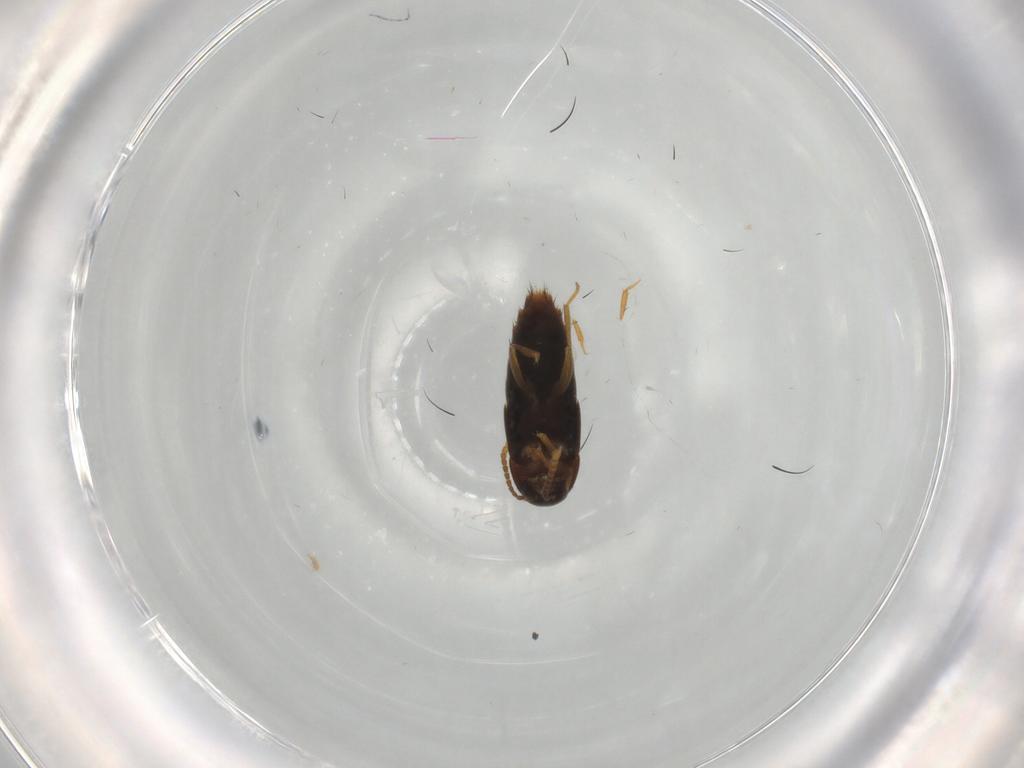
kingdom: Animalia
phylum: Arthropoda
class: Insecta
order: Coleoptera
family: Staphylinidae
